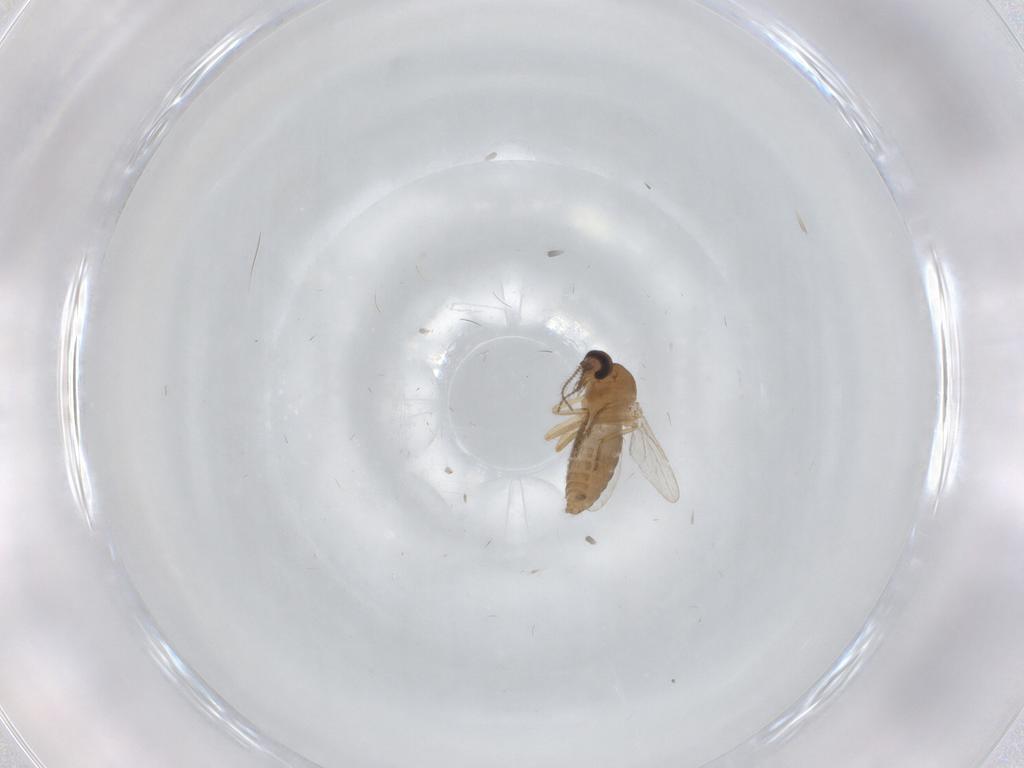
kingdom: Animalia
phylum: Arthropoda
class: Insecta
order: Diptera
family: Ceratopogonidae
